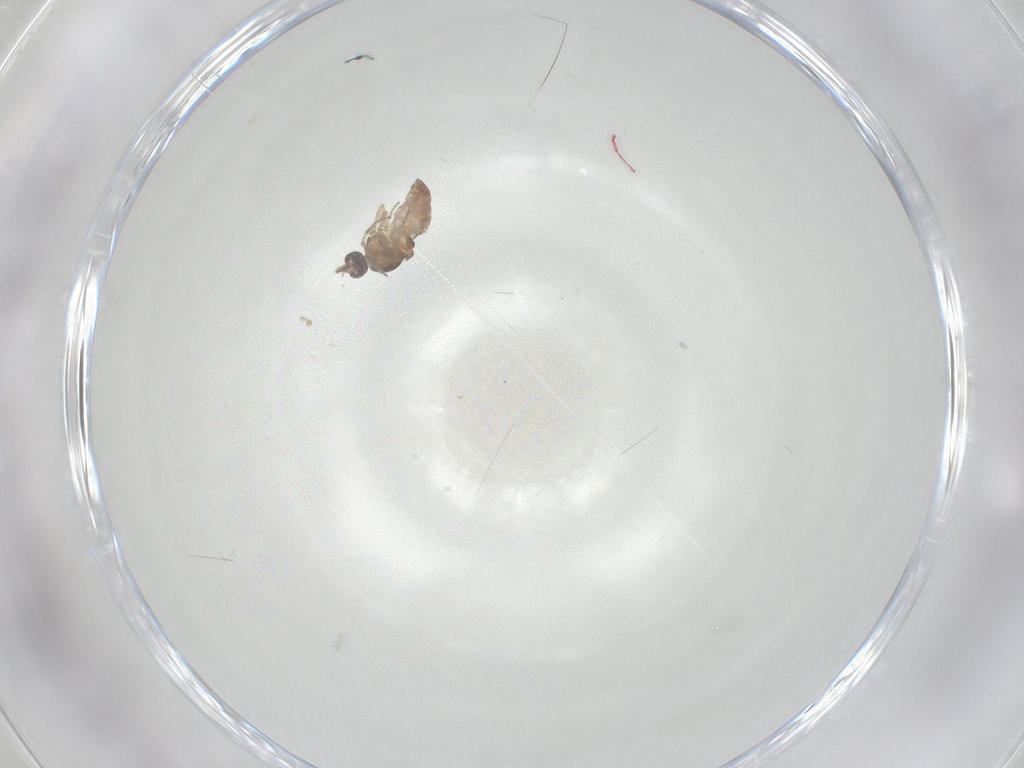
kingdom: Animalia
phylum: Arthropoda
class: Insecta
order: Diptera
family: Ceratopogonidae
